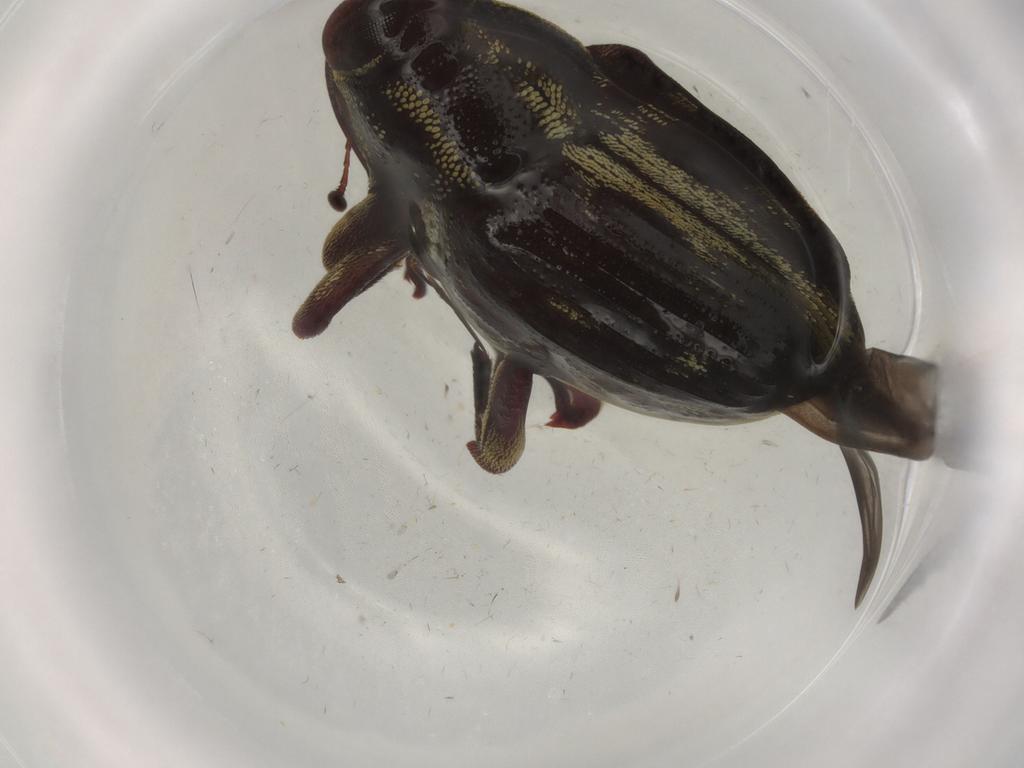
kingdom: Animalia
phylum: Arthropoda
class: Insecta
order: Coleoptera
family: Nitidulidae
